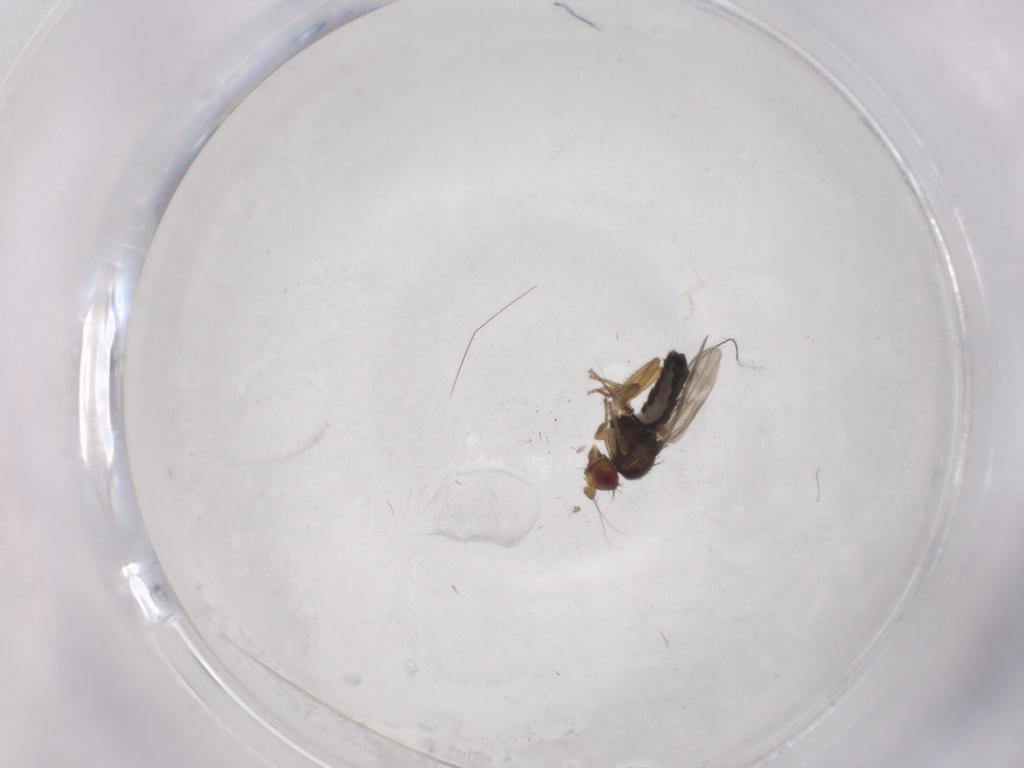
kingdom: Animalia
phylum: Arthropoda
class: Insecta
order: Diptera
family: Sphaeroceridae
